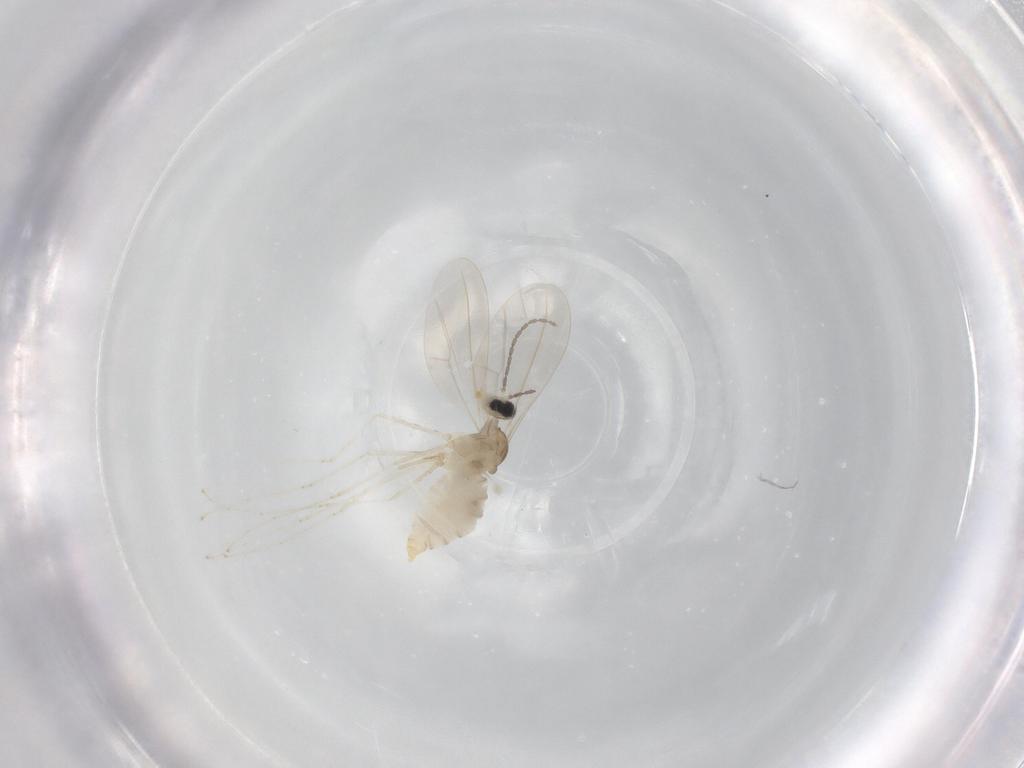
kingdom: Animalia
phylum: Arthropoda
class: Insecta
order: Diptera
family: Cecidomyiidae
